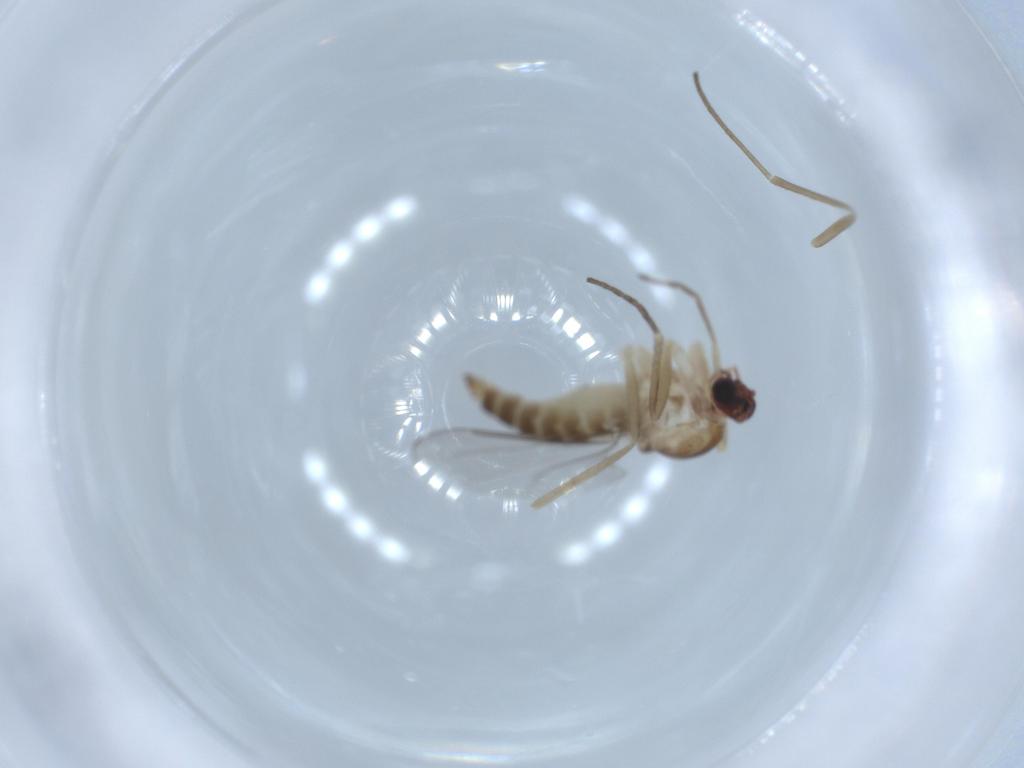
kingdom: Animalia
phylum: Arthropoda
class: Insecta
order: Diptera
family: Cecidomyiidae
